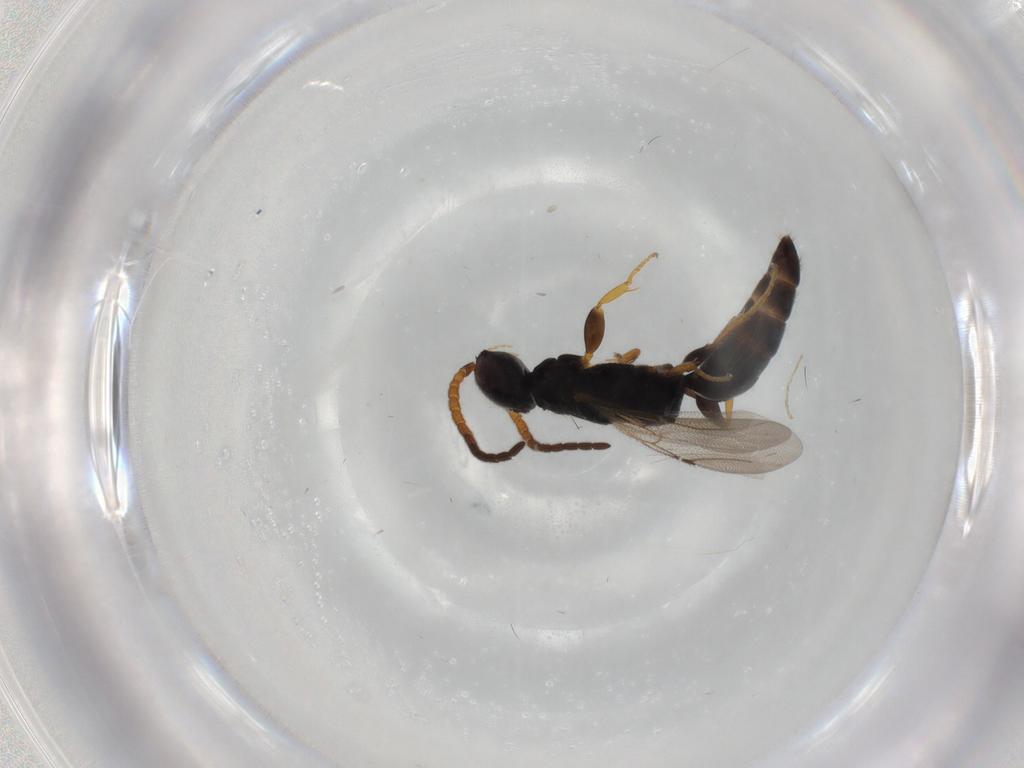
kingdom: Animalia
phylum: Arthropoda
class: Insecta
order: Hymenoptera
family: Bethylidae
